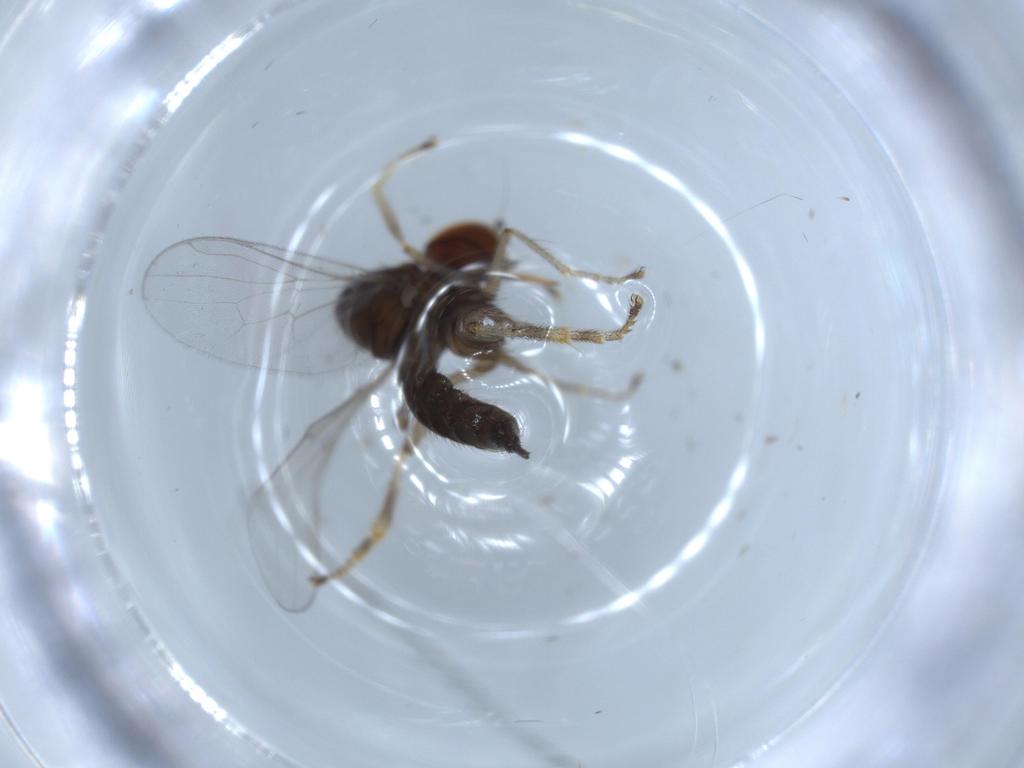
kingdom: Animalia
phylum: Arthropoda
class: Insecta
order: Diptera
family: Hybotidae
